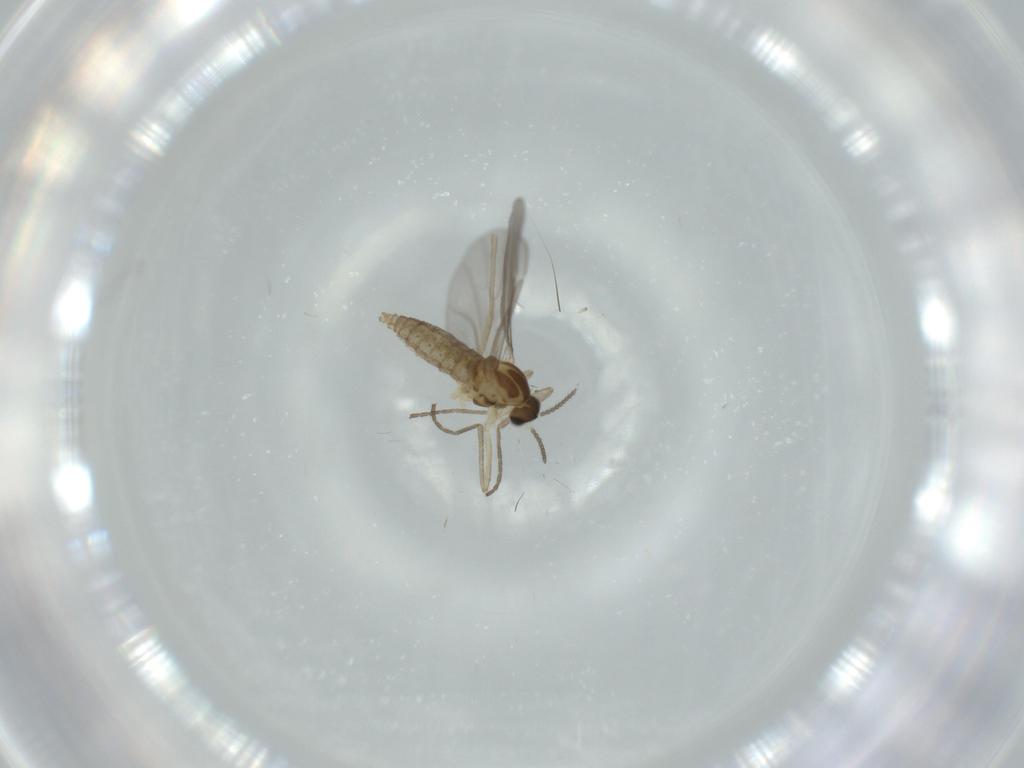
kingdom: Animalia
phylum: Arthropoda
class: Insecta
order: Diptera
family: Cecidomyiidae
